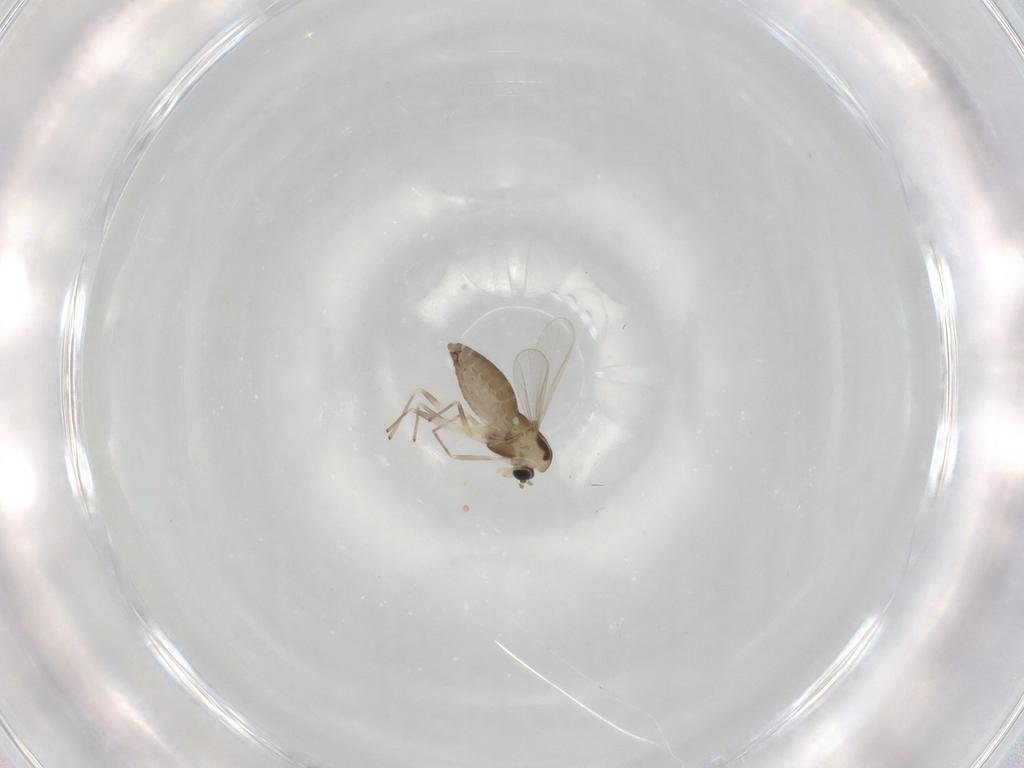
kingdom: Animalia
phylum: Arthropoda
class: Insecta
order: Diptera
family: Chironomidae
